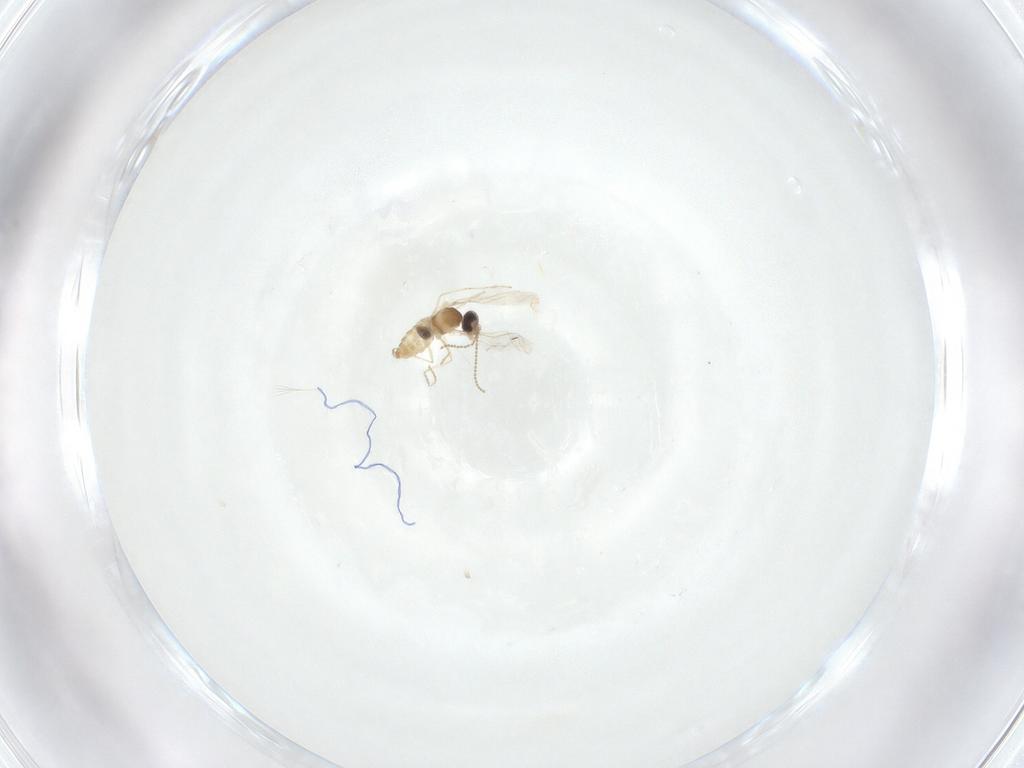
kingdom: Animalia
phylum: Arthropoda
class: Insecta
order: Diptera
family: Cecidomyiidae
